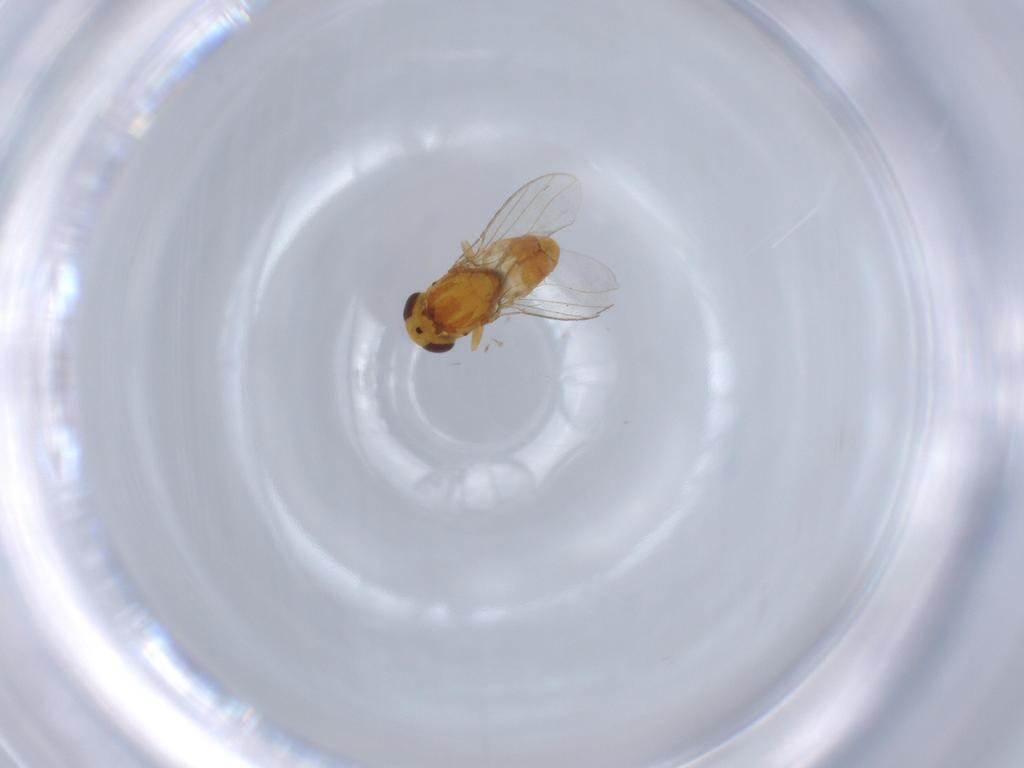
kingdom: Animalia
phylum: Arthropoda
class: Insecta
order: Diptera
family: Chloropidae
